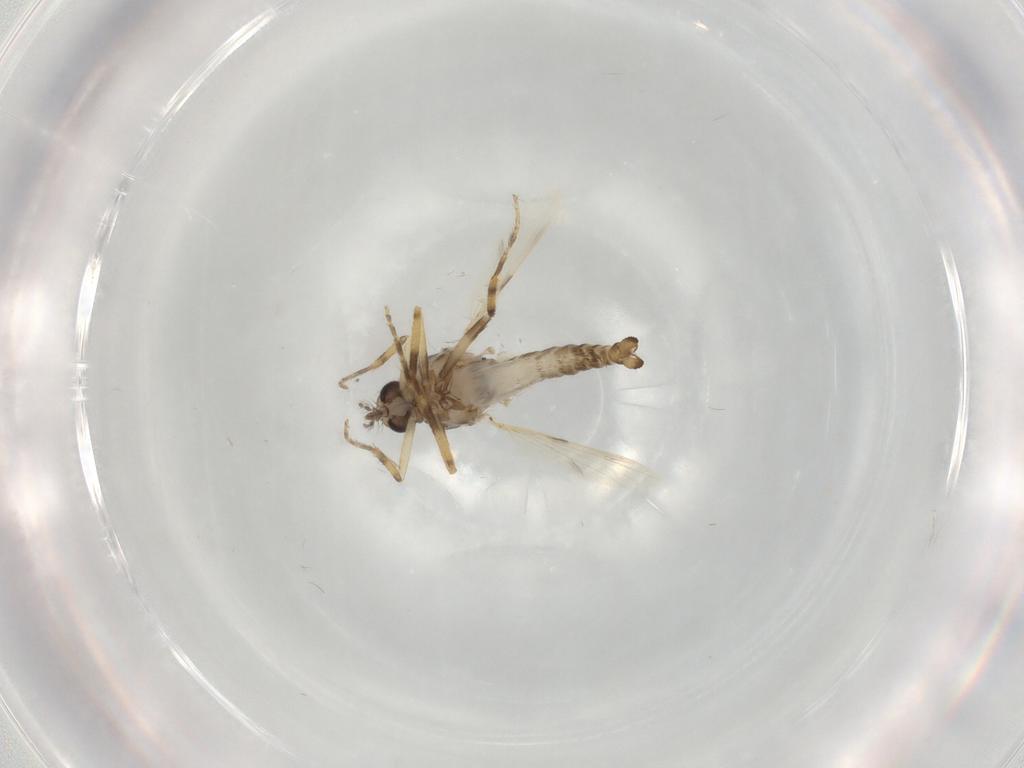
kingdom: Animalia
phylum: Arthropoda
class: Insecta
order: Diptera
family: Ceratopogonidae
